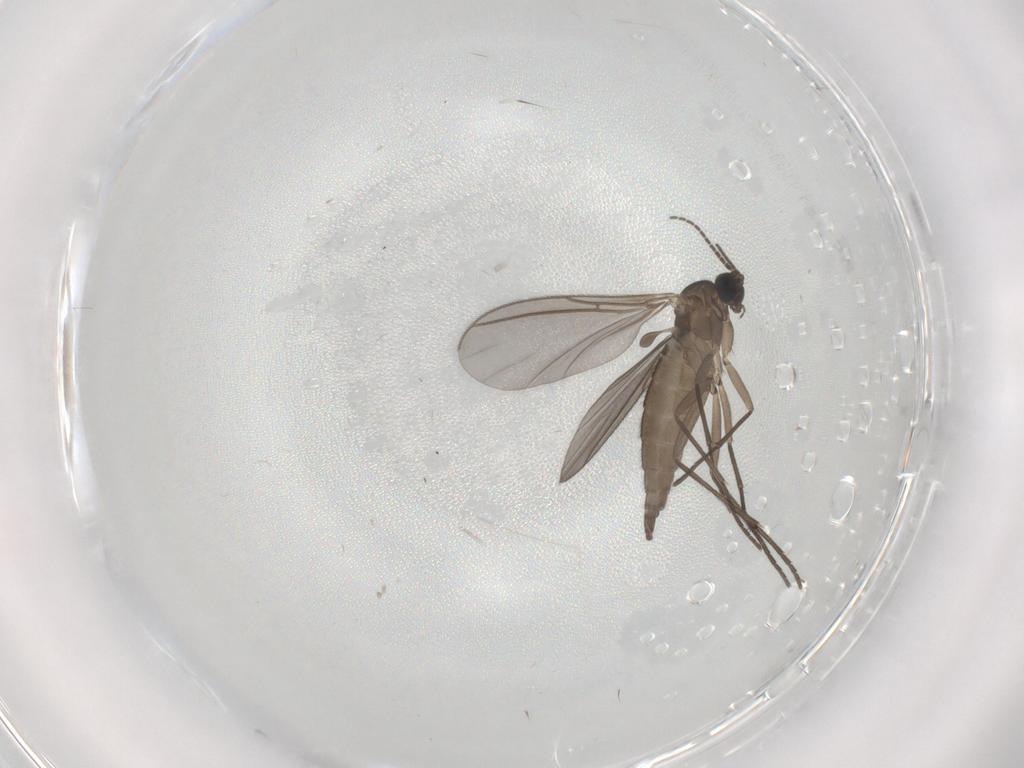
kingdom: Animalia
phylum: Arthropoda
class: Insecta
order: Diptera
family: Sciaridae
